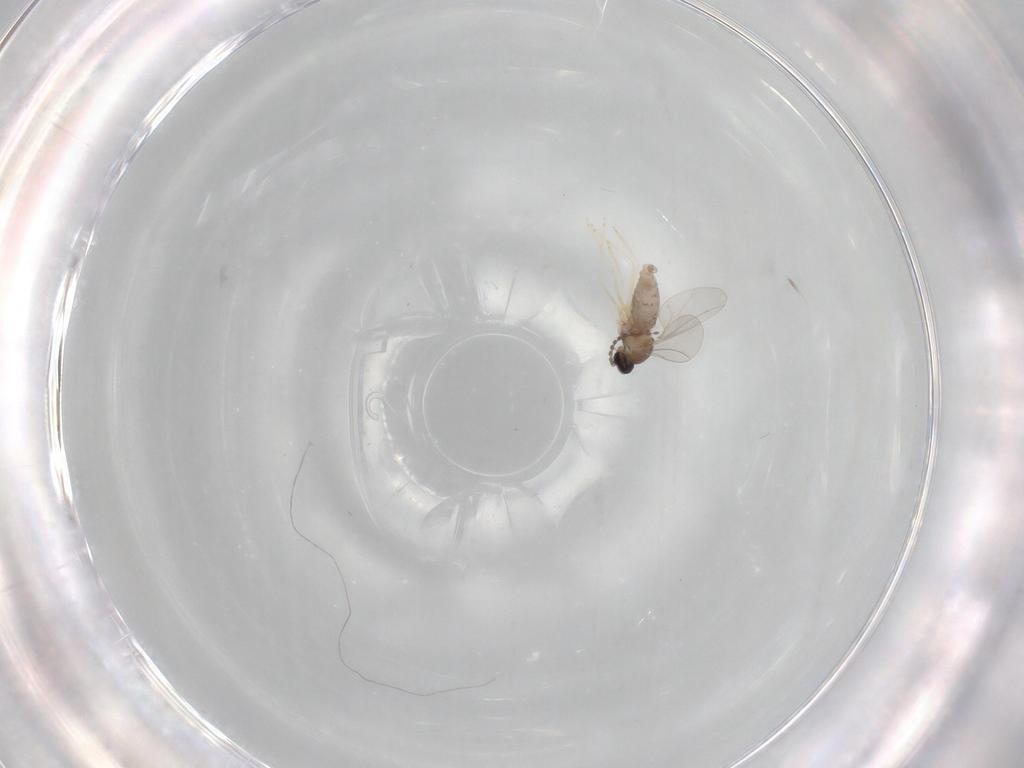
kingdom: Animalia
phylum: Arthropoda
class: Insecta
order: Diptera
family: Cecidomyiidae
